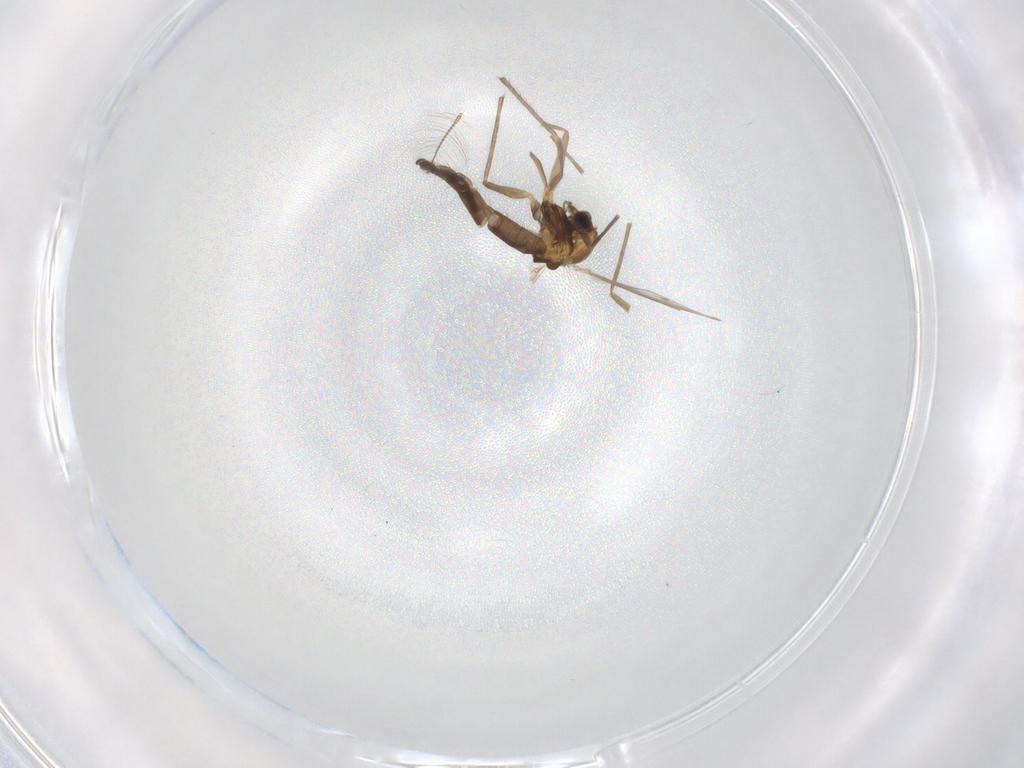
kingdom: Animalia
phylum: Arthropoda
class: Insecta
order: Diptera
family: Chironomidae
